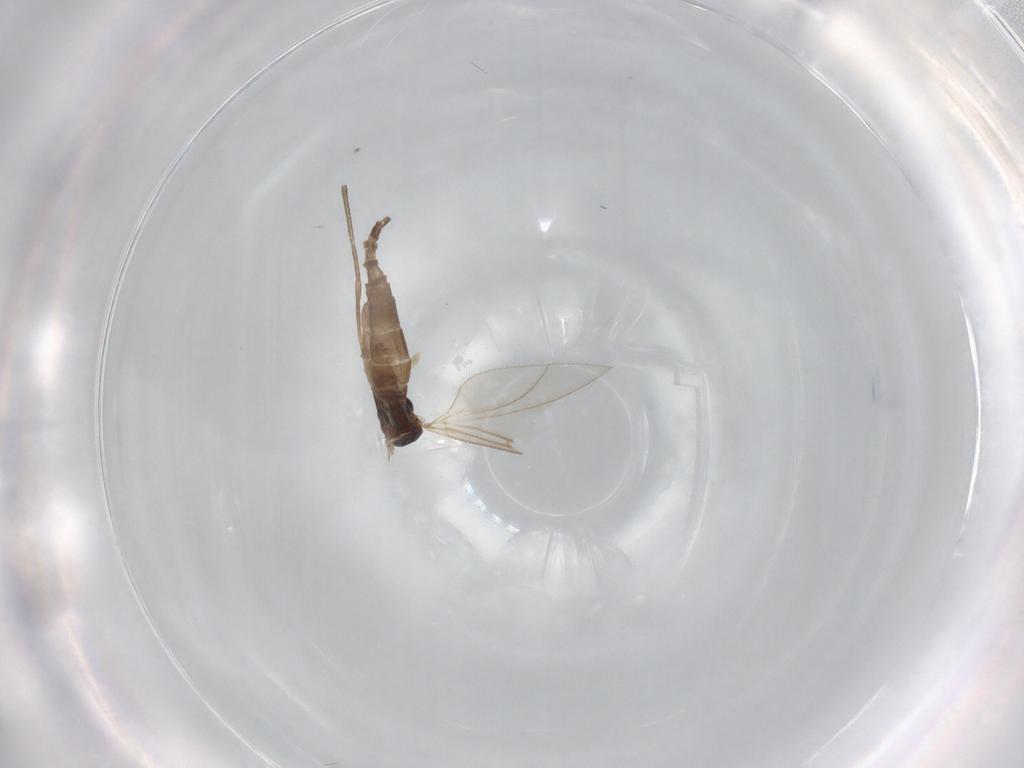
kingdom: Animalia
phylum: Arthropoda
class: Insecta
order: Diptera
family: Sciaridae
